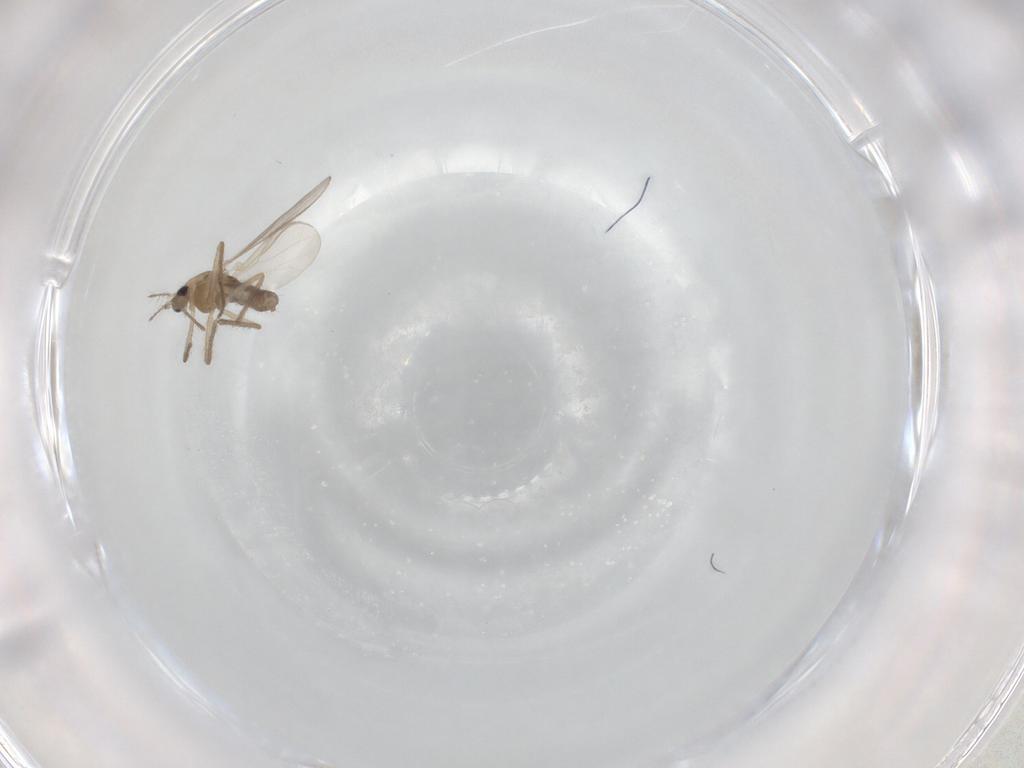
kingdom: Animalia
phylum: Arthropoda
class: Insecta
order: Diptera
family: Chironomidae
